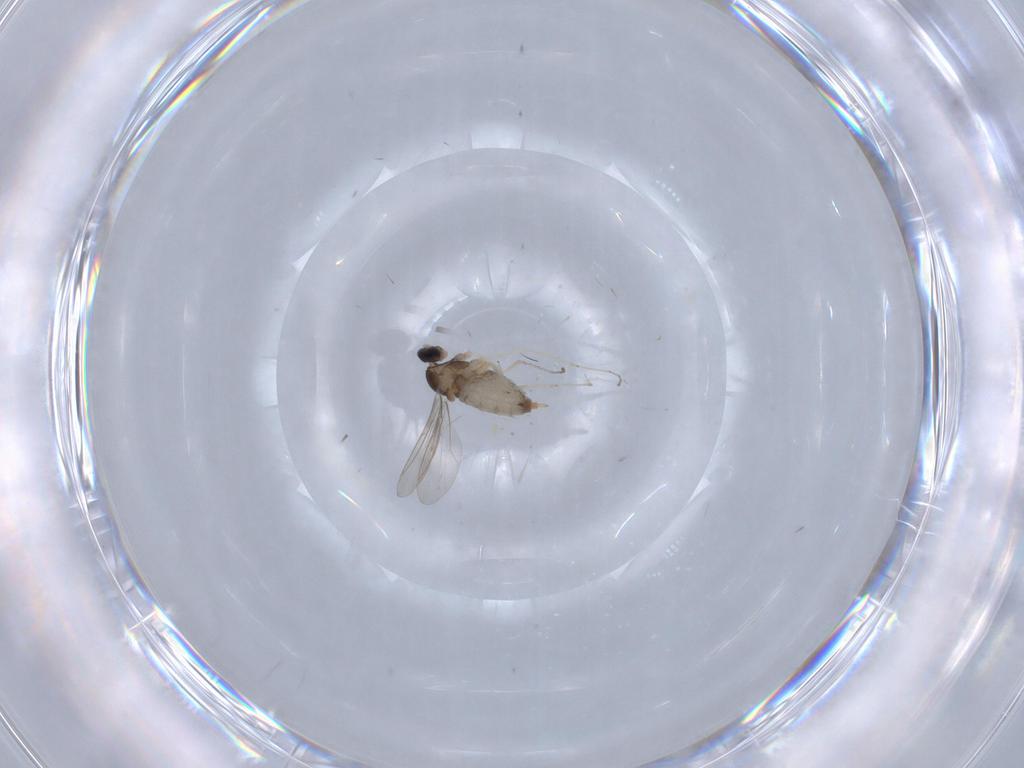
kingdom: Animalia
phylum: Arthropoda
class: Insecta
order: Diptera
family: Cecidomyiidae
